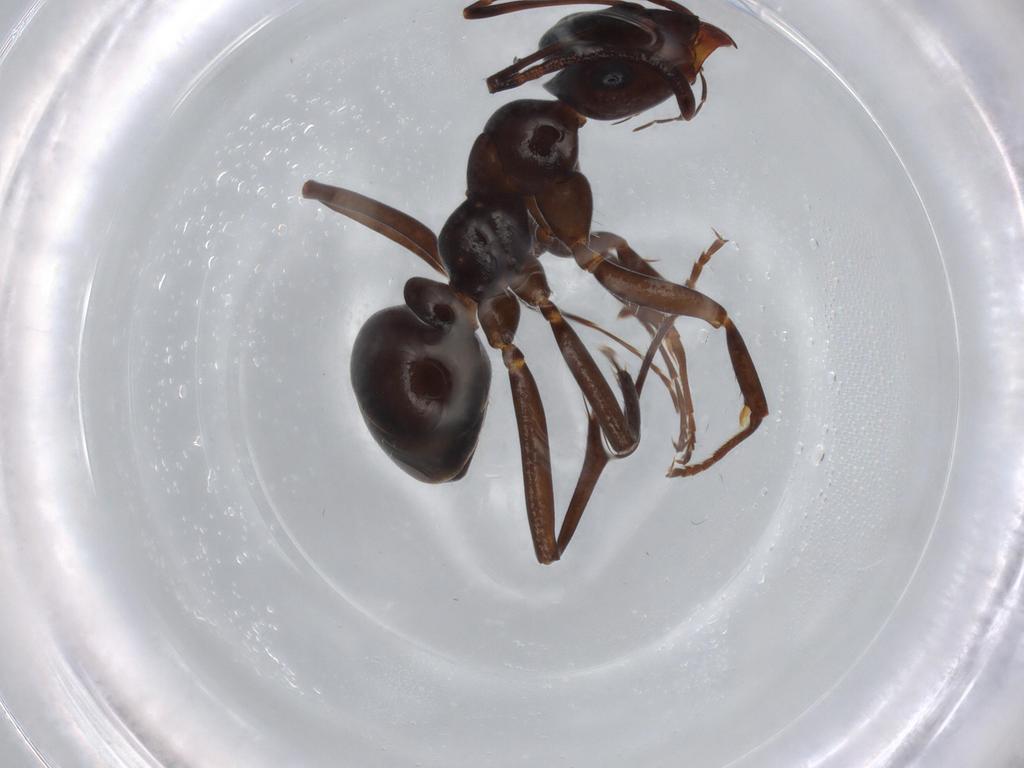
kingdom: Animalia
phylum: Arthropoda
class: Insecta
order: Hymenoptera
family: Formicidae
